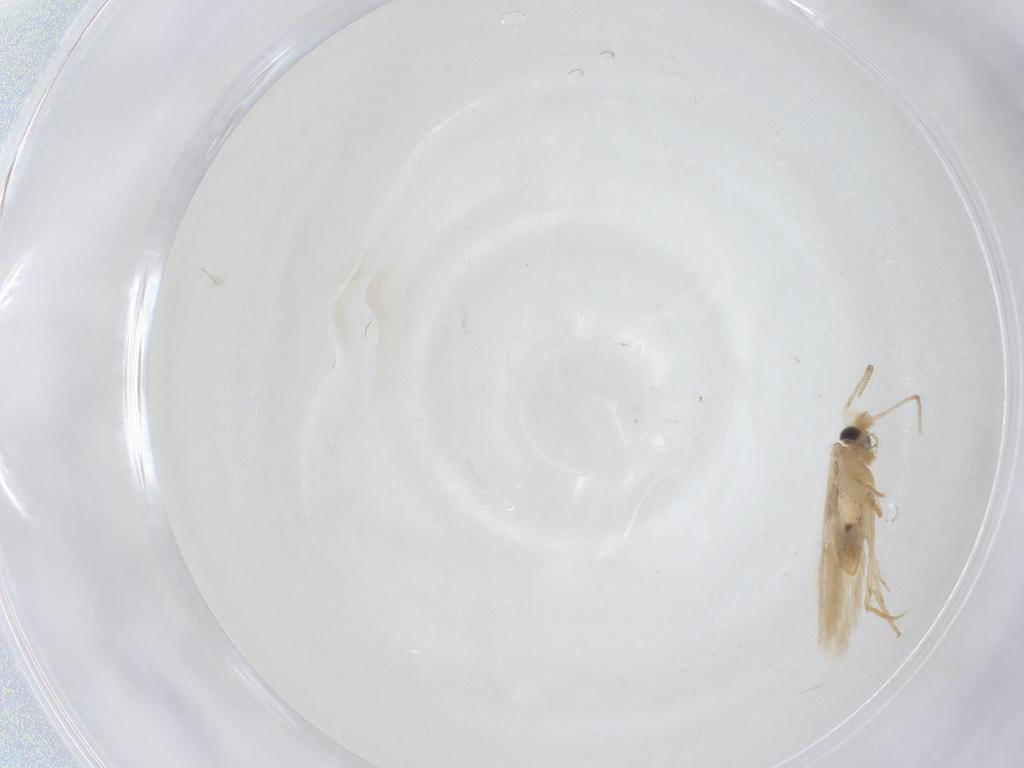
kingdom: Animalia
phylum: Arthropoda
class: Insecta
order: Lepidoptera
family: Nepticulidae
